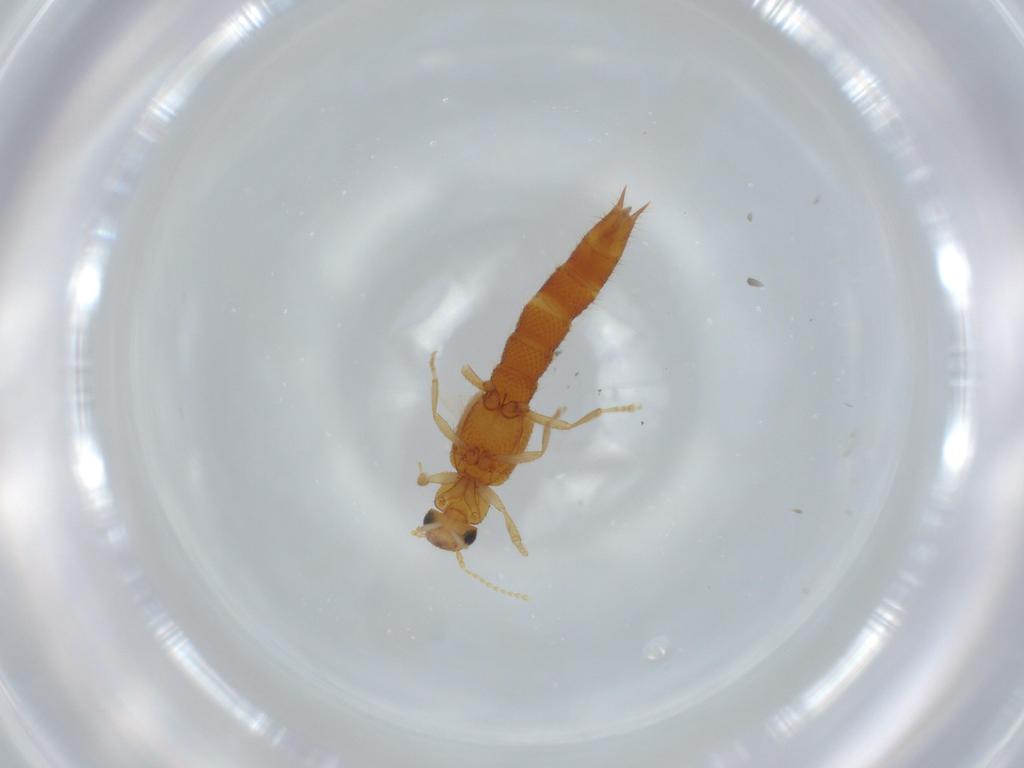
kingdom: Animalia
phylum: Arthropoda
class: Insecta
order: Coleoptera
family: Staphylinidae
